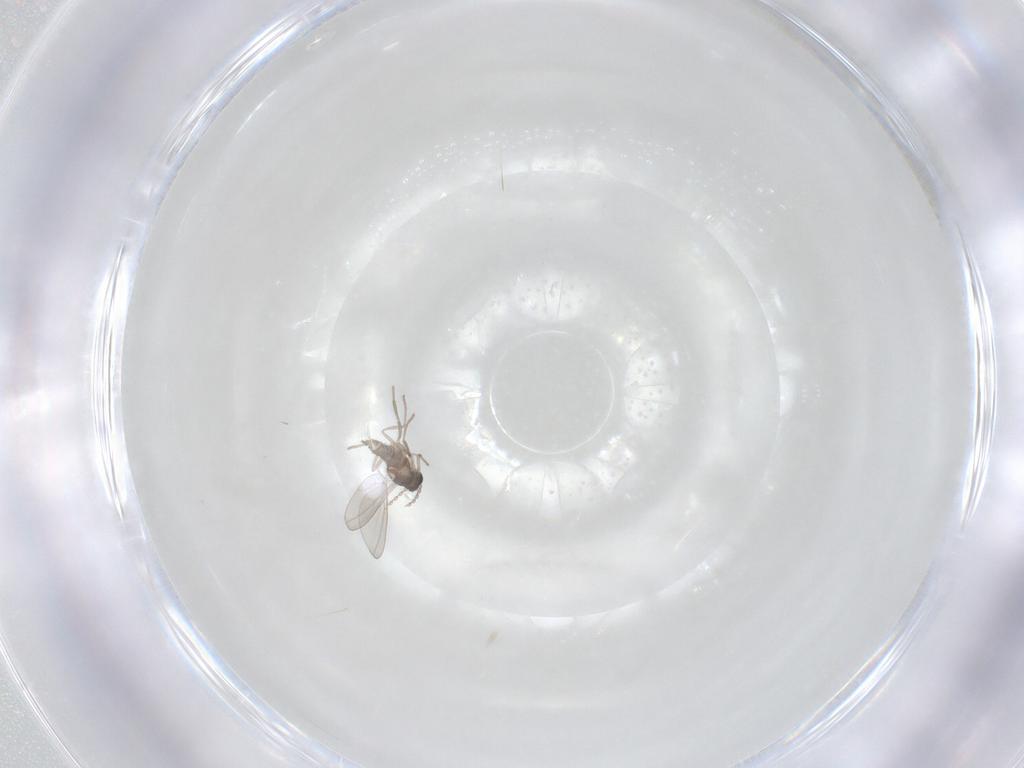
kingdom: Animalia
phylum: Arthropoda
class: Insecta
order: Diptera
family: Cecidomyiidae
